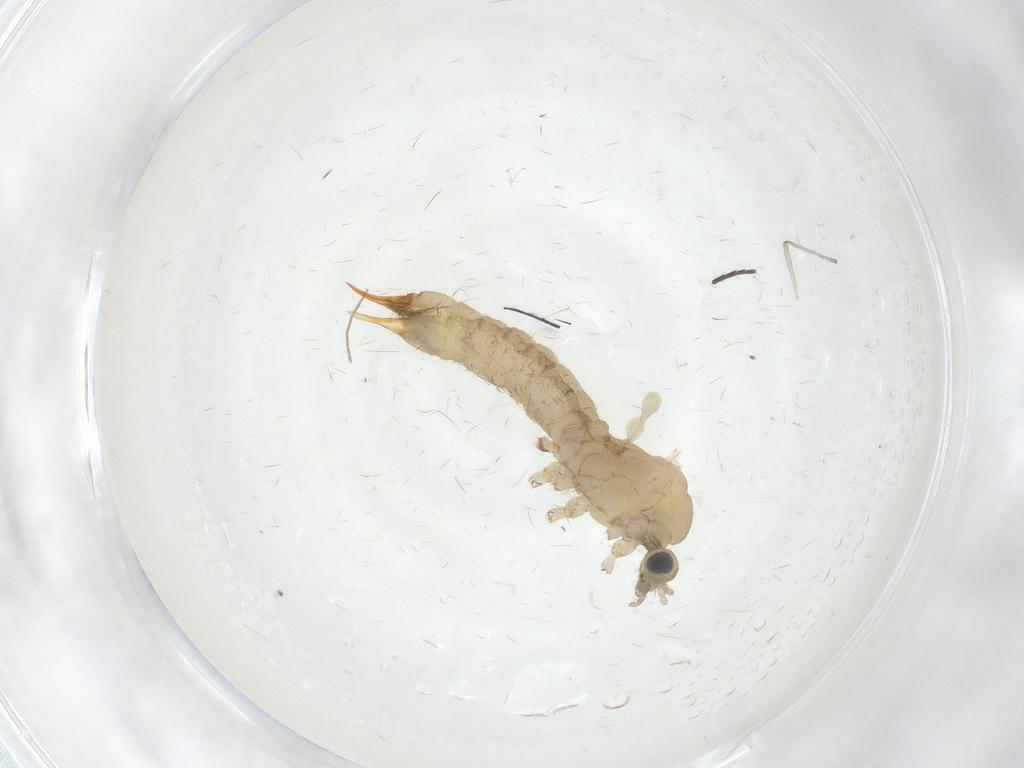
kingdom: Animalia
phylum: Arthropoda
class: Insecta
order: Diptera
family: Sciaridae
